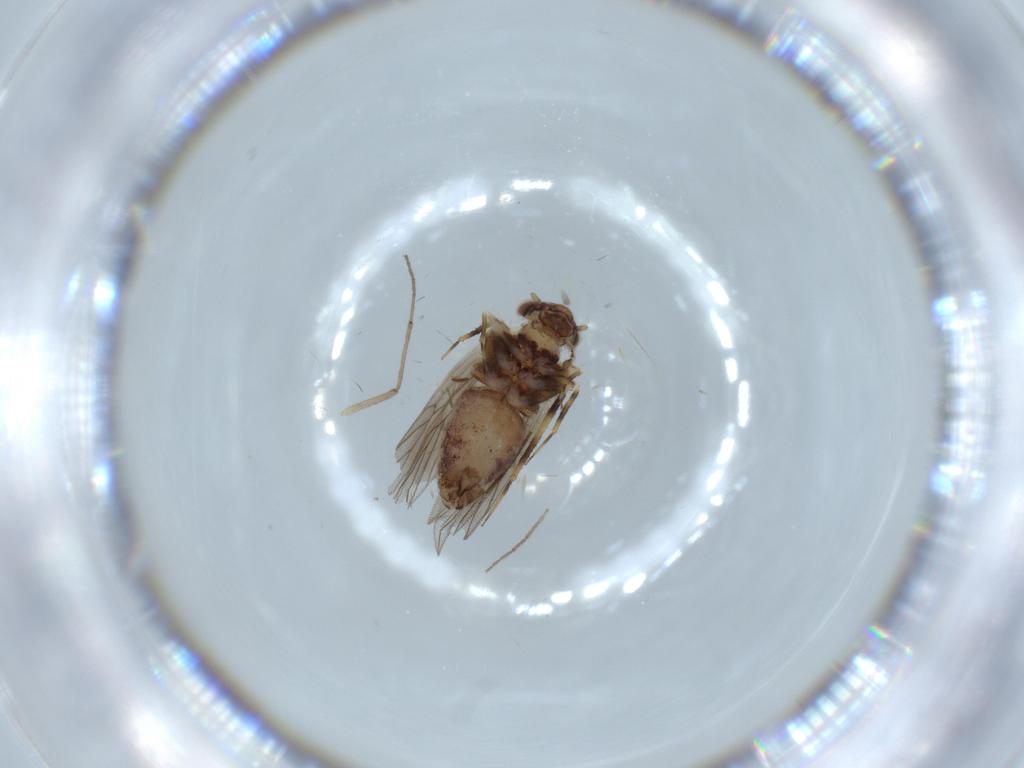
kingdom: Animalia
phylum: Arthropoda
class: Insecta
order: Psocodea
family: Lepidopsocidae
